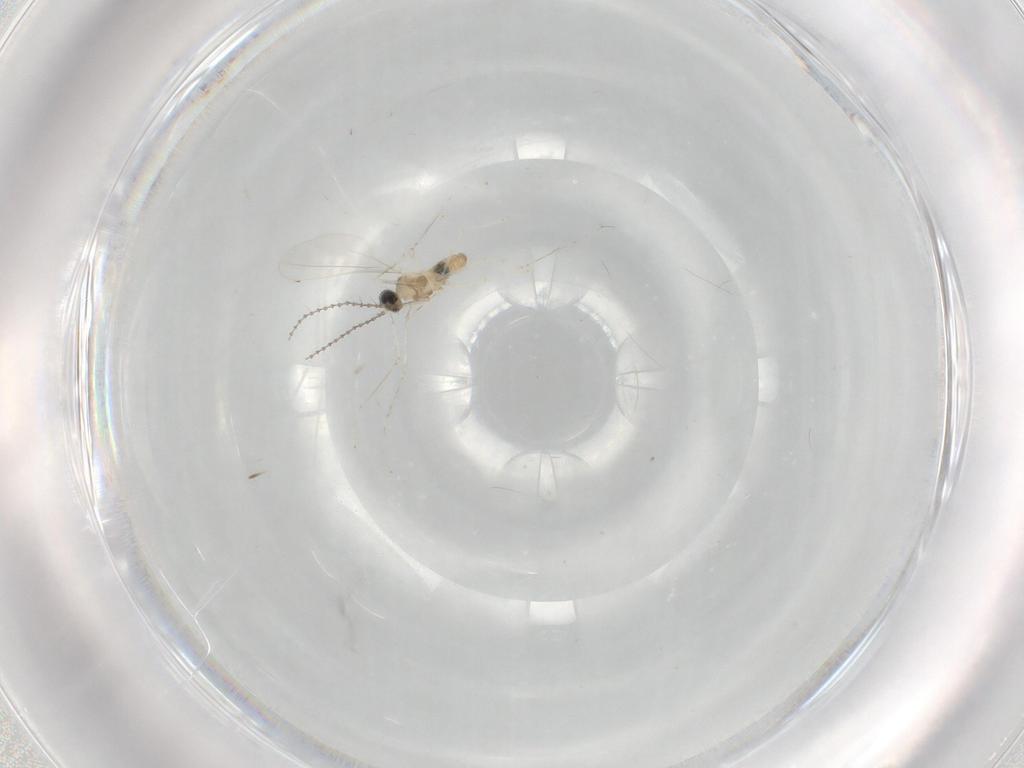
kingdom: Animalia
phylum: Arthropoda
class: Insecta
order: Diptera
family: Cecidomyiidae
